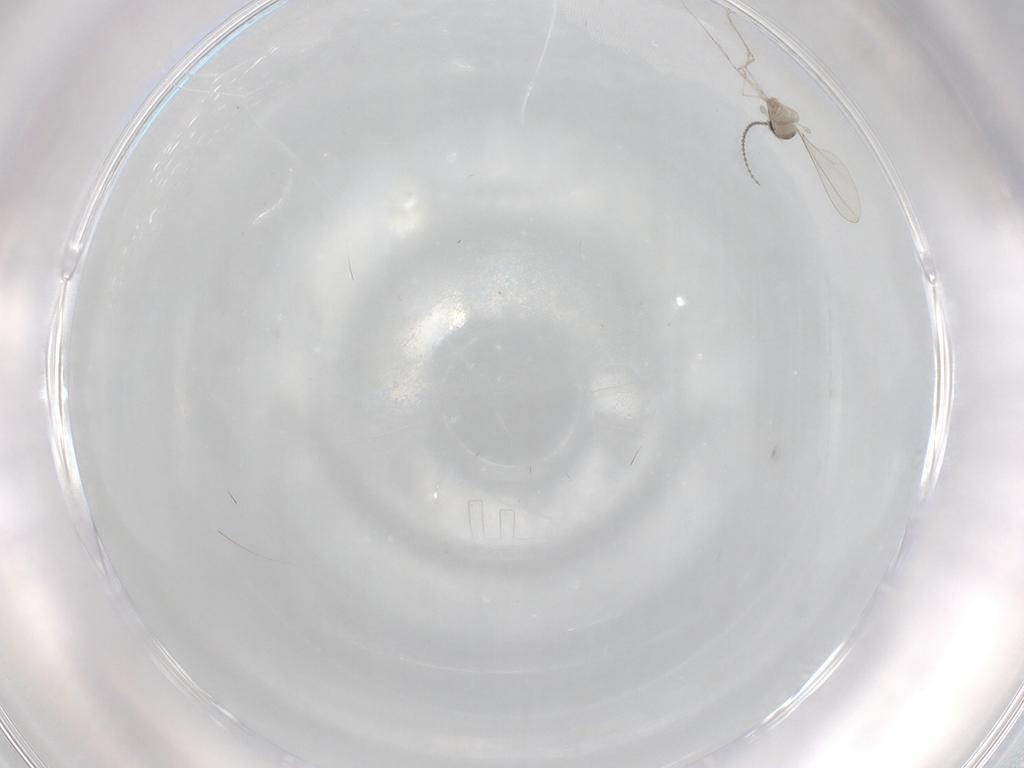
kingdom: Animalia
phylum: Arthropoda
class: Insecta
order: Diptera
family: Cecidomyiidae
